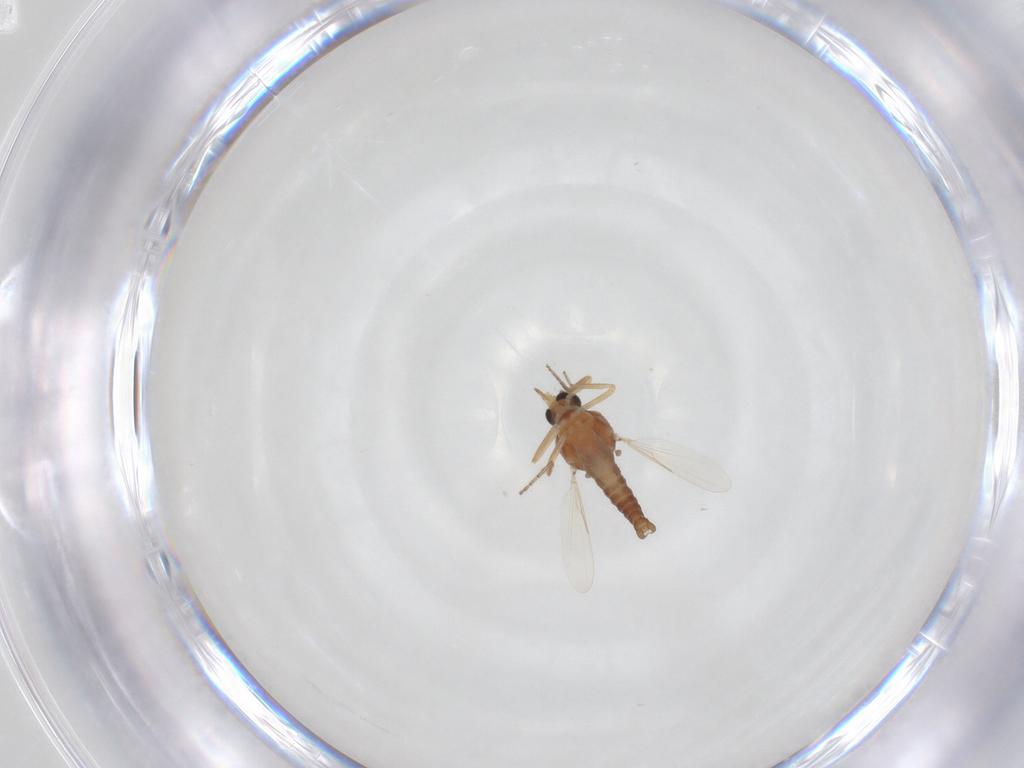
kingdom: Animalia
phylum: Arthropoda
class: Insecta
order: Diptera
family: Ceratopogonidae
